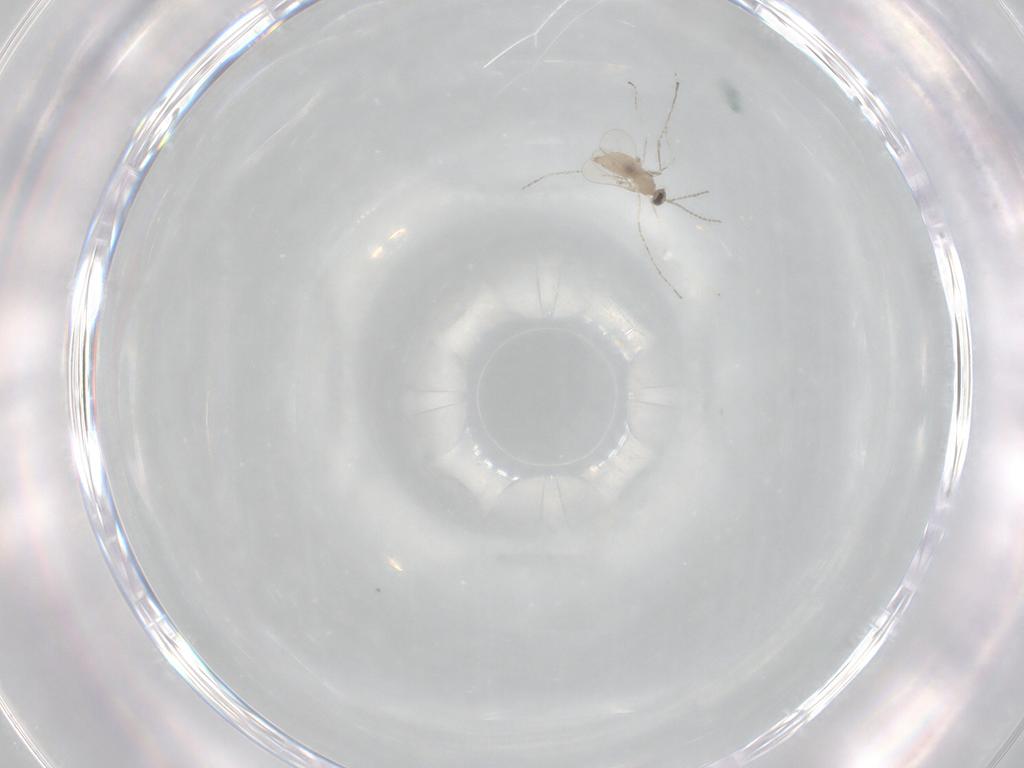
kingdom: Animalia
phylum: Arthropoda
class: Insecta
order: Diptera
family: Cecidomyiidae
